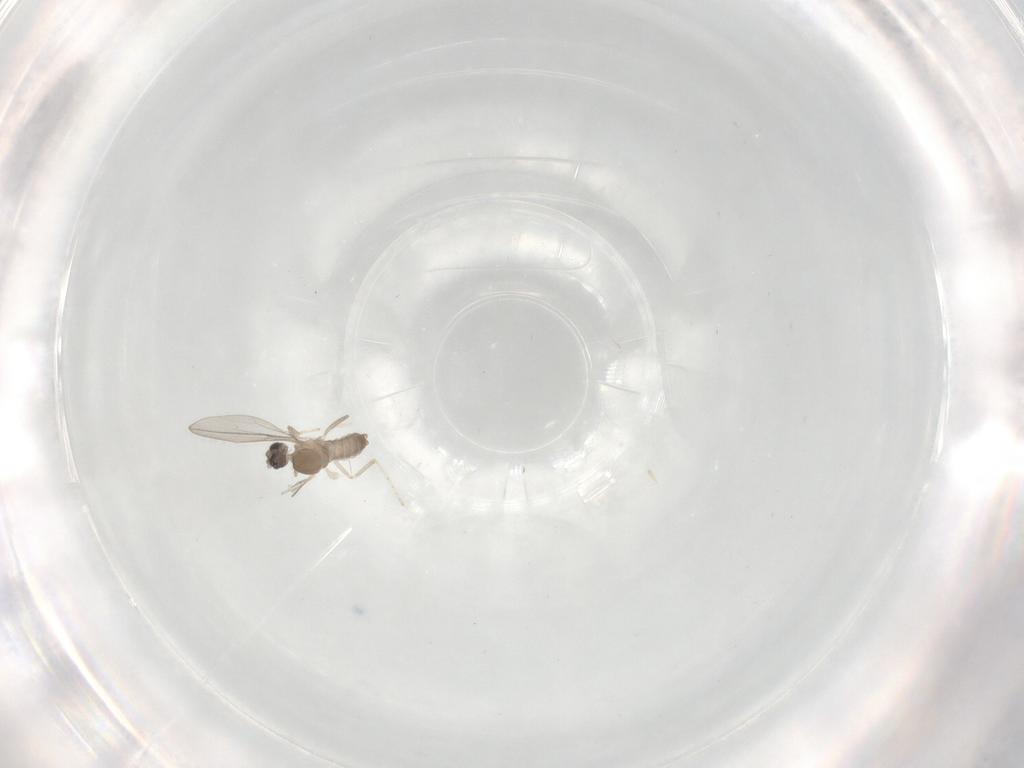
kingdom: Animalia
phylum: Arthropoda
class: Insecta
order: Diptera
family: Cecidomyiidae
